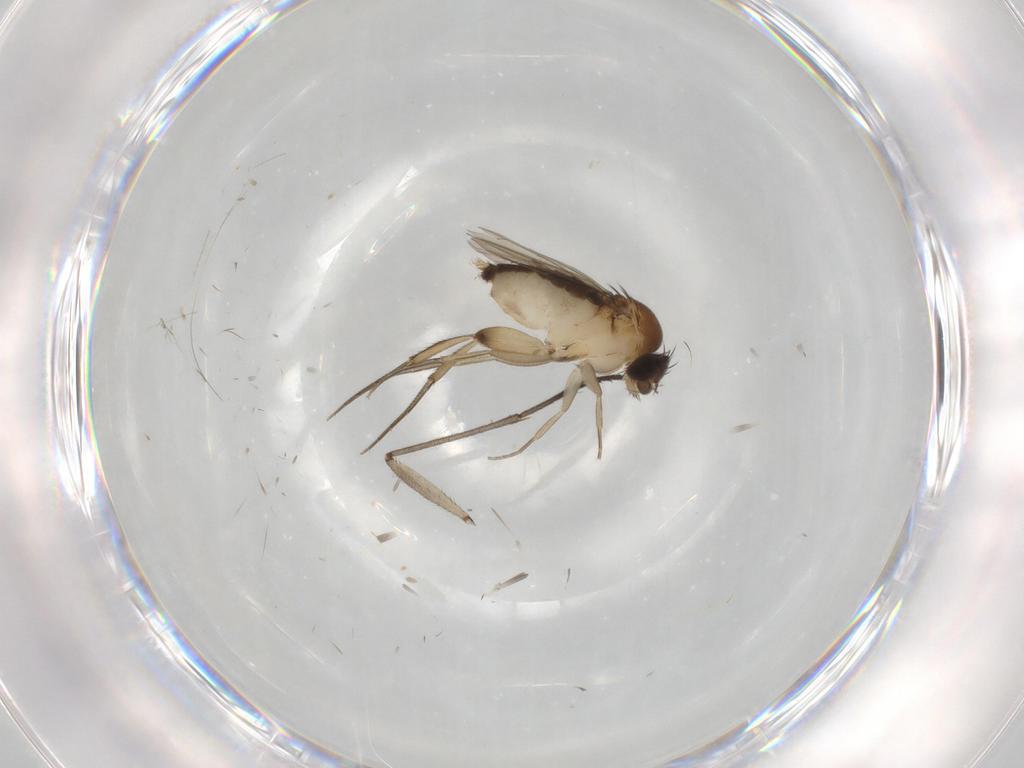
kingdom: Animalia
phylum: Arthropoda
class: Insecta
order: Diptera
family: Phoridae
